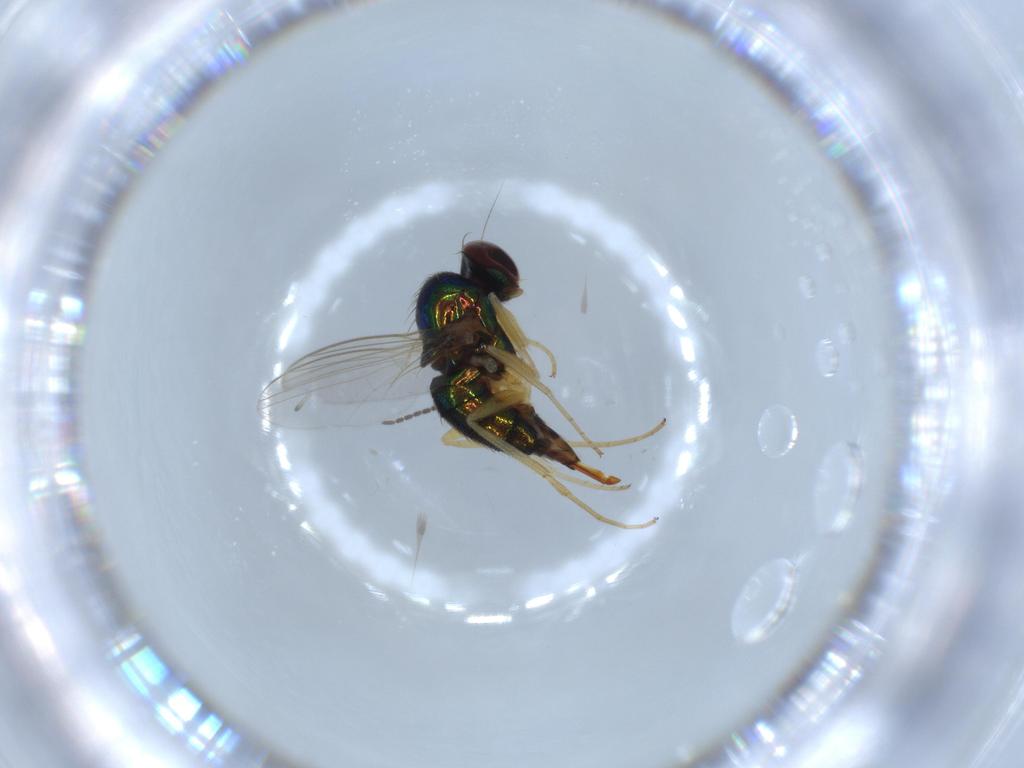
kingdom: Animalia
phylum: Arthropoda
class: Insecta
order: Diptera
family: Dolichopodidae
